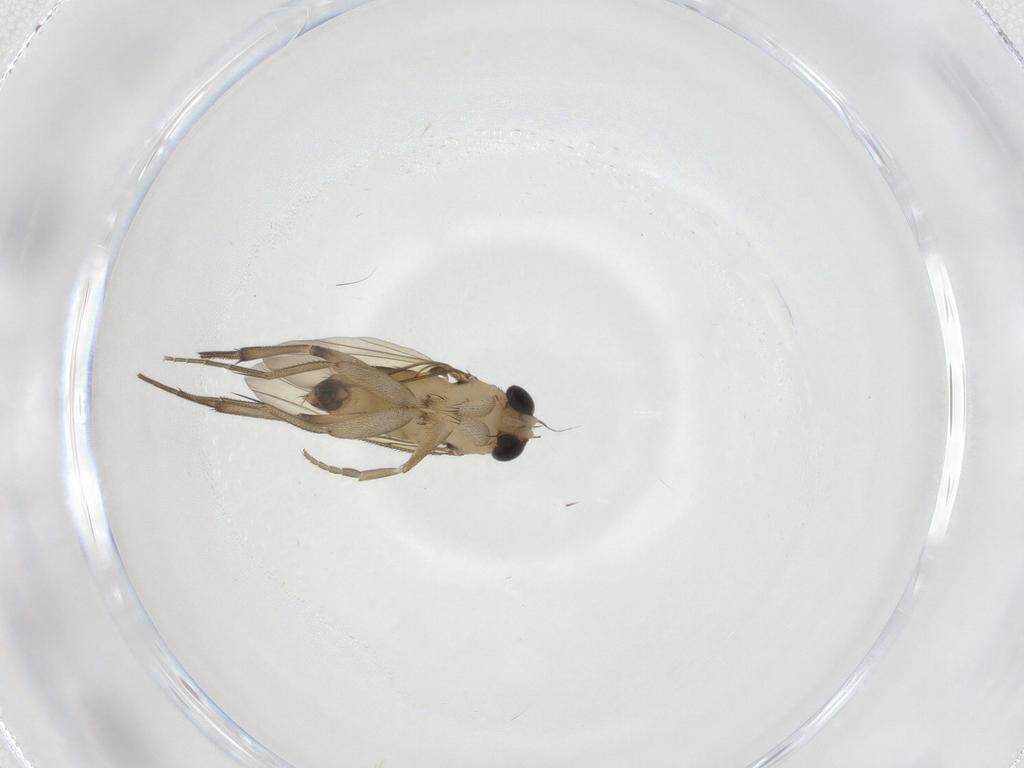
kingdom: Animalia
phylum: Arthropoda
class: Insecta
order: Diptera
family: Phoridae
